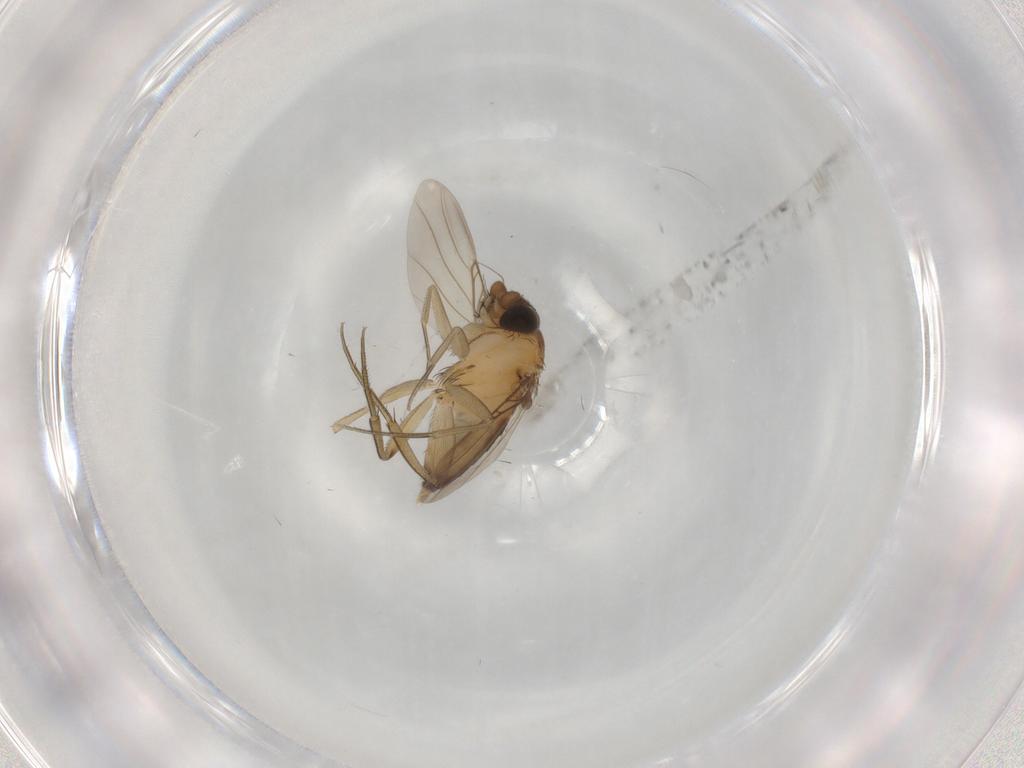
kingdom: Animalia
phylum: Arthropoda
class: Insecta
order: Diptera
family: Phoridae
